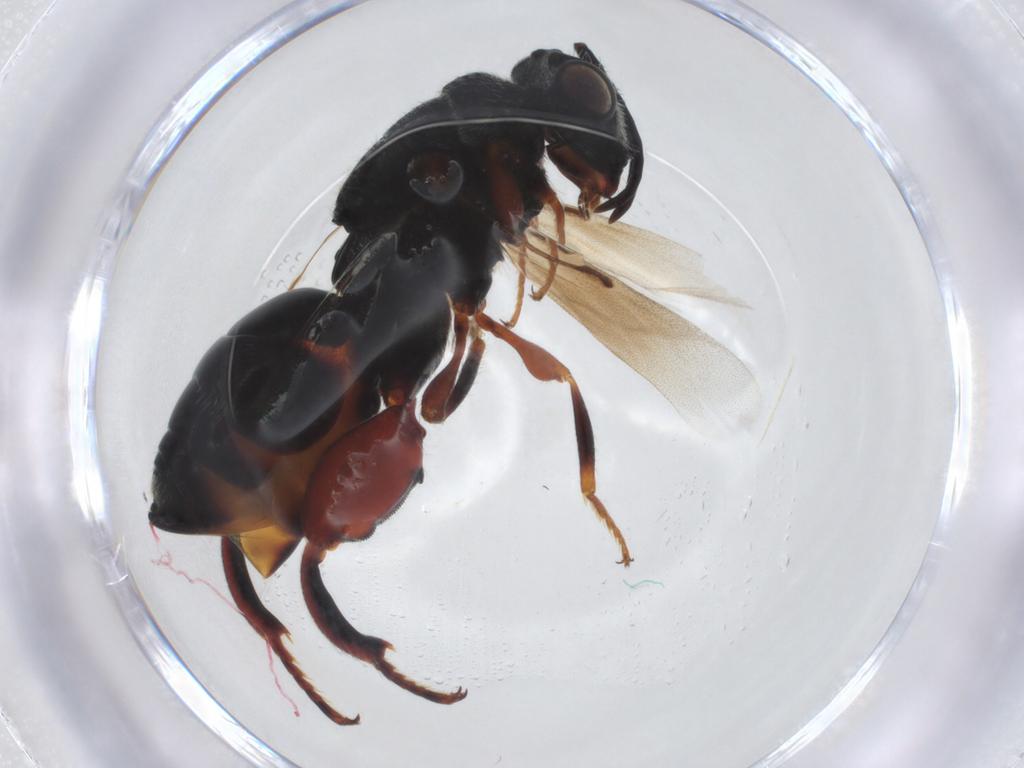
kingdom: Animalia
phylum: Arthropoda
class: Insecta
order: Hymenoptera
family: Chalcididae
